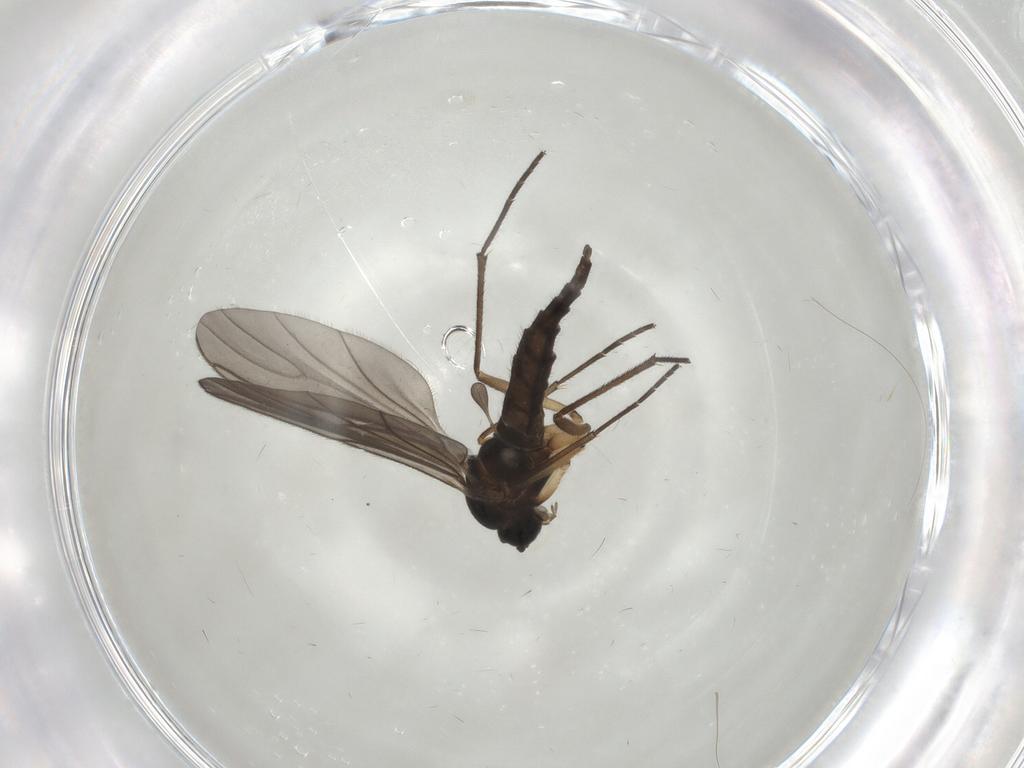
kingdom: Animalia
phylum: Arthropoda
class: Insecta
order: Diptera
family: Sciaridae
